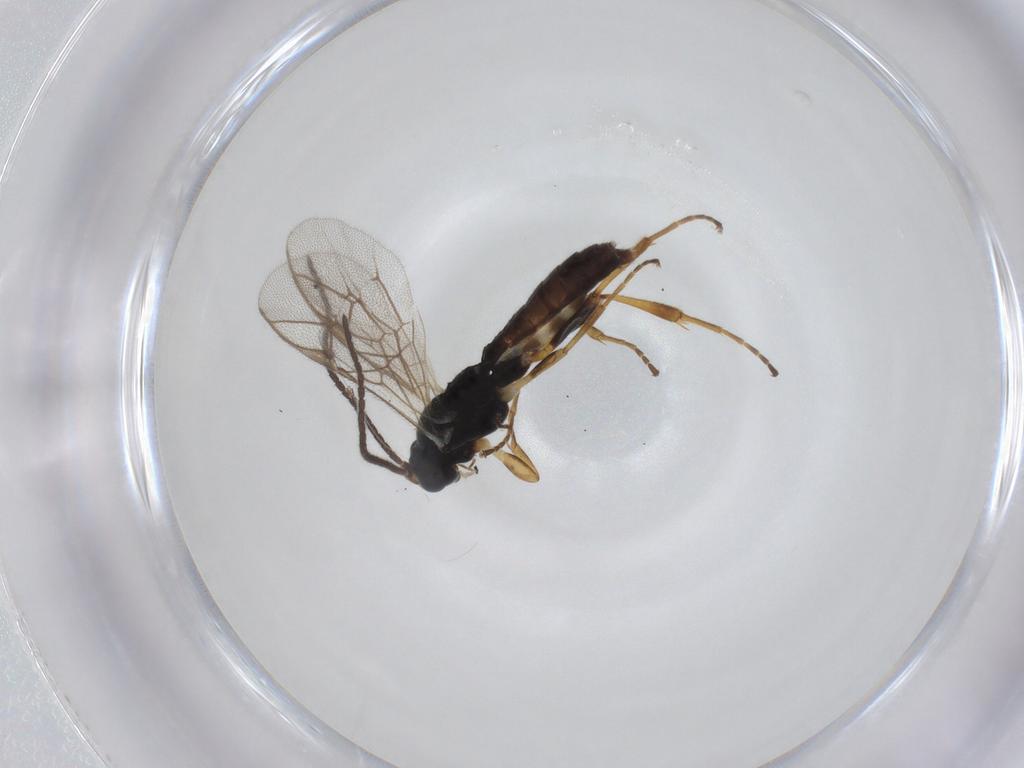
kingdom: Animalia
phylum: Arthropoda
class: Insecta
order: Hymenoptera
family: Ichneumonidae
